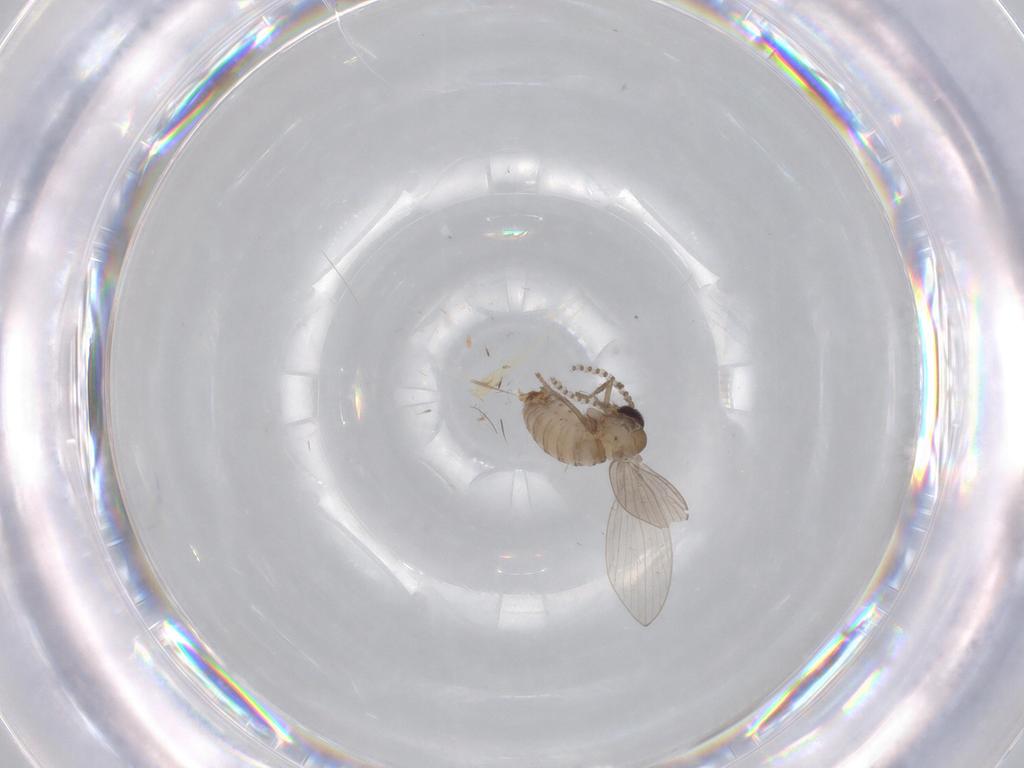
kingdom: Animalia
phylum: Arthropoda
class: Insecta
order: Diptera
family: Psychodidae
